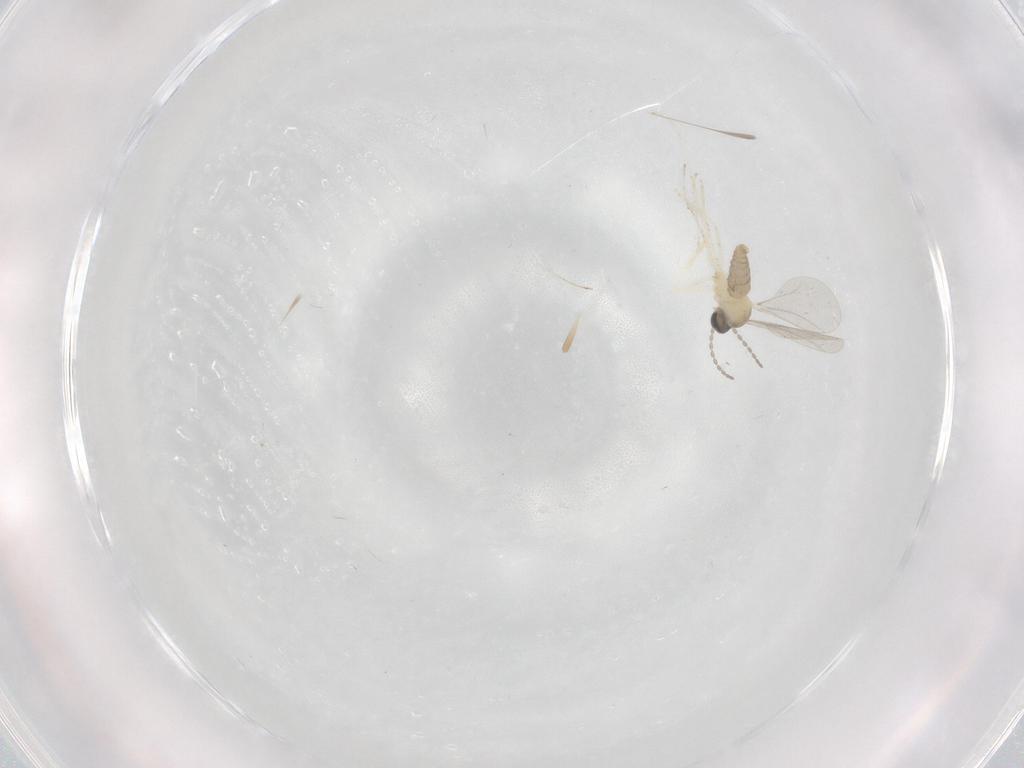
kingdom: Animalia
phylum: Arthropoda
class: Insecta
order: Diptera
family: Cecidomyiidae
